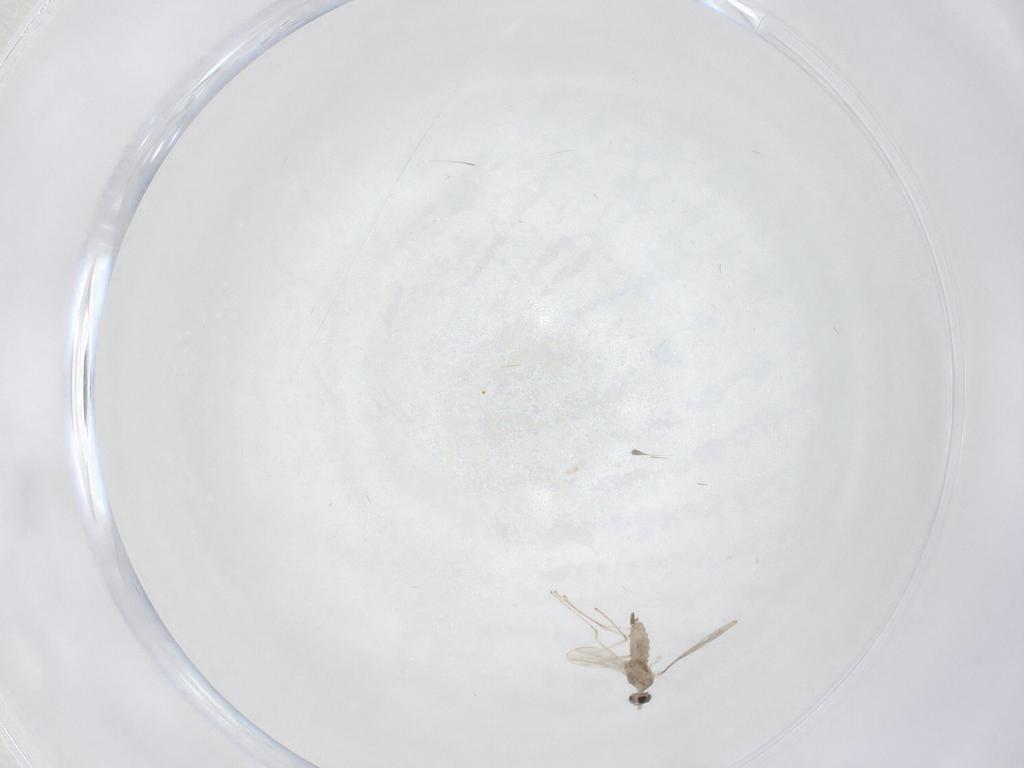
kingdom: Animalia
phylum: Arthropoda
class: Insecta
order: Diptera
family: Cecidomyiidae
